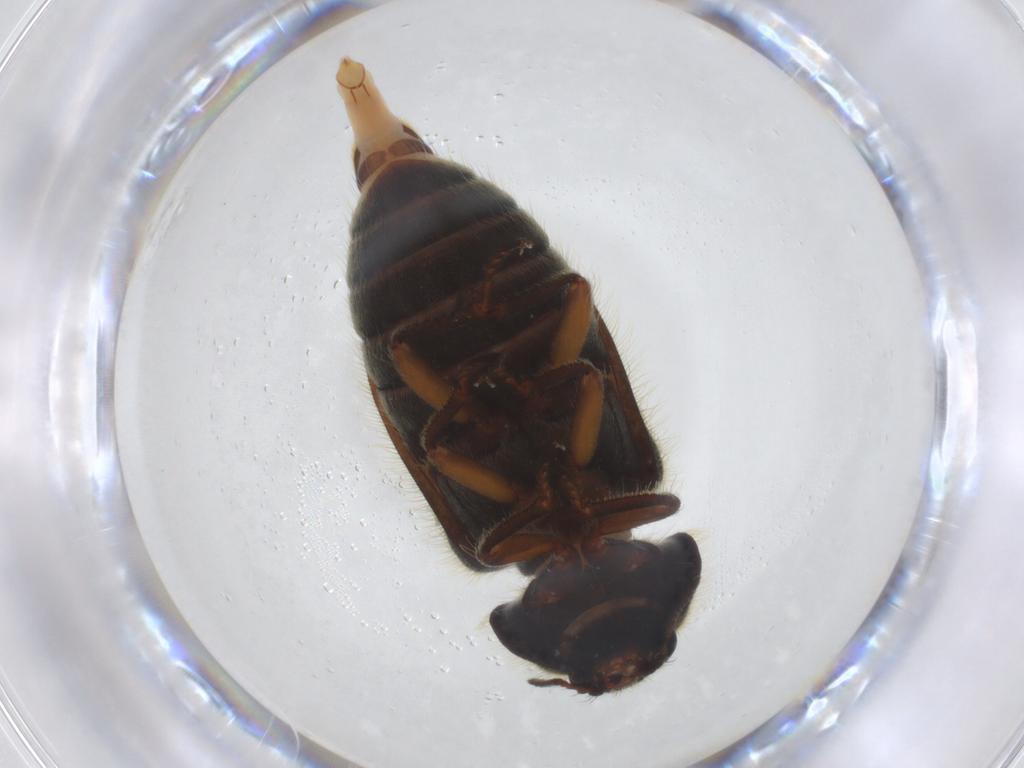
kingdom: Animalia
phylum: Arthropoda
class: Insecta
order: Coleoptera
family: Melyridae
